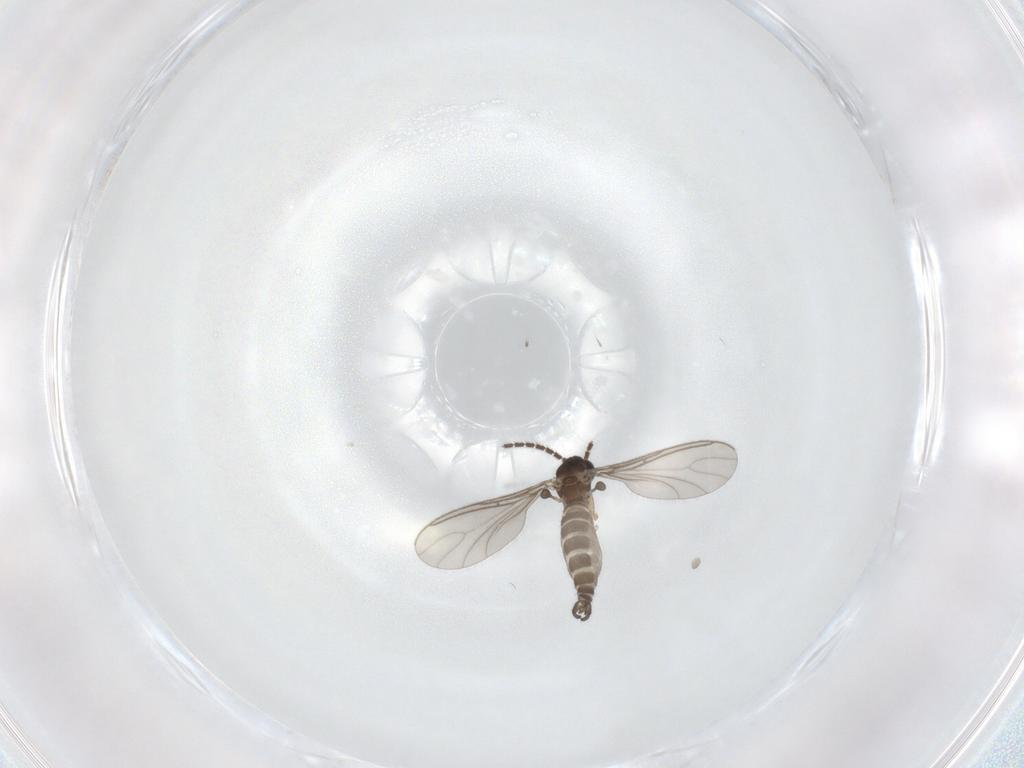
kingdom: Animalia
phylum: Arthropoda
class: Insecta
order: Diptera
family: Sciaridae
